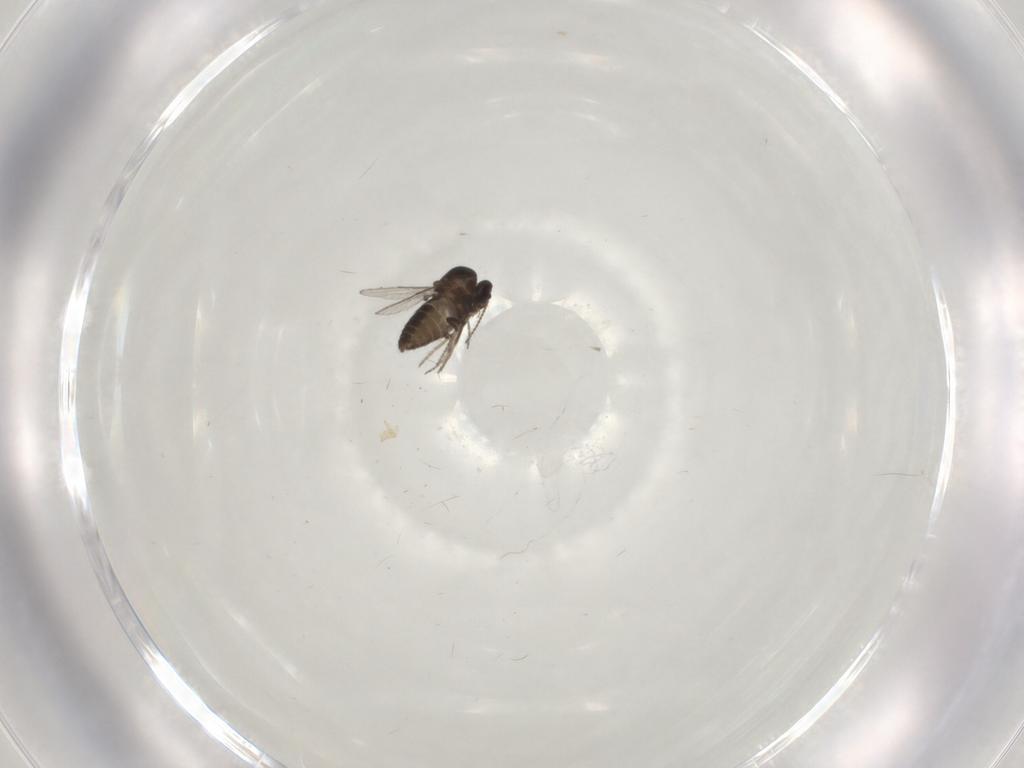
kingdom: Animalia
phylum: Arthropoda
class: Insecta
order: Diptera
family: Ceratopogonidae
